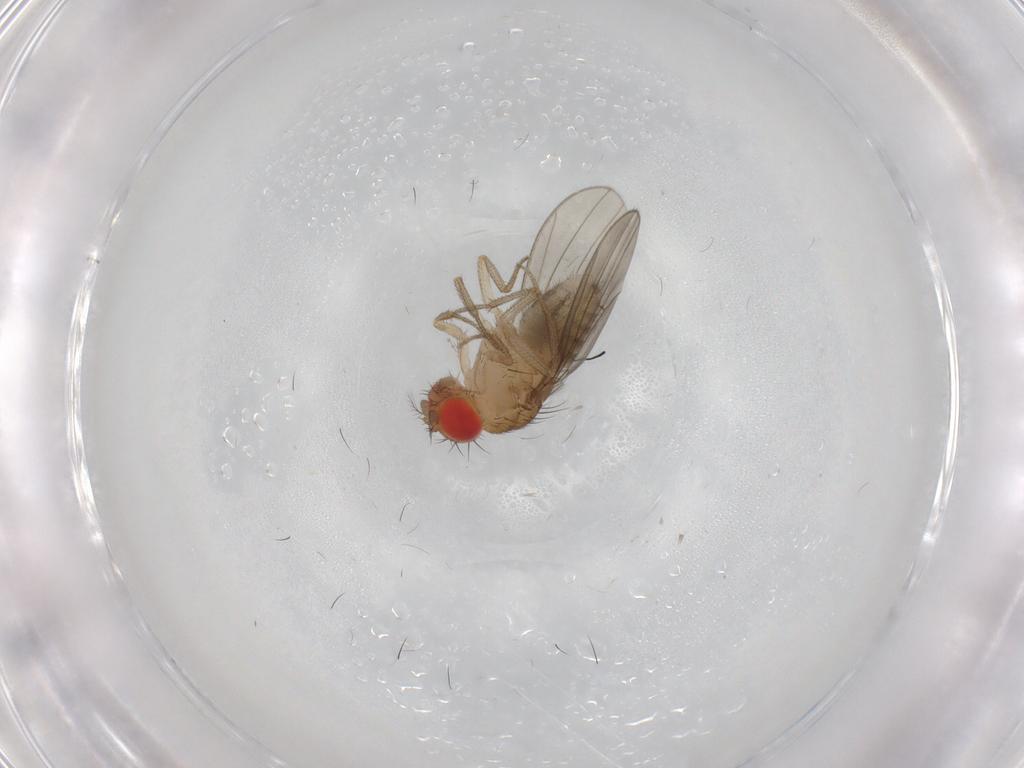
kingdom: Animalia
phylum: Arthropoda
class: Insecta
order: Diptera
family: Drosophilidae
